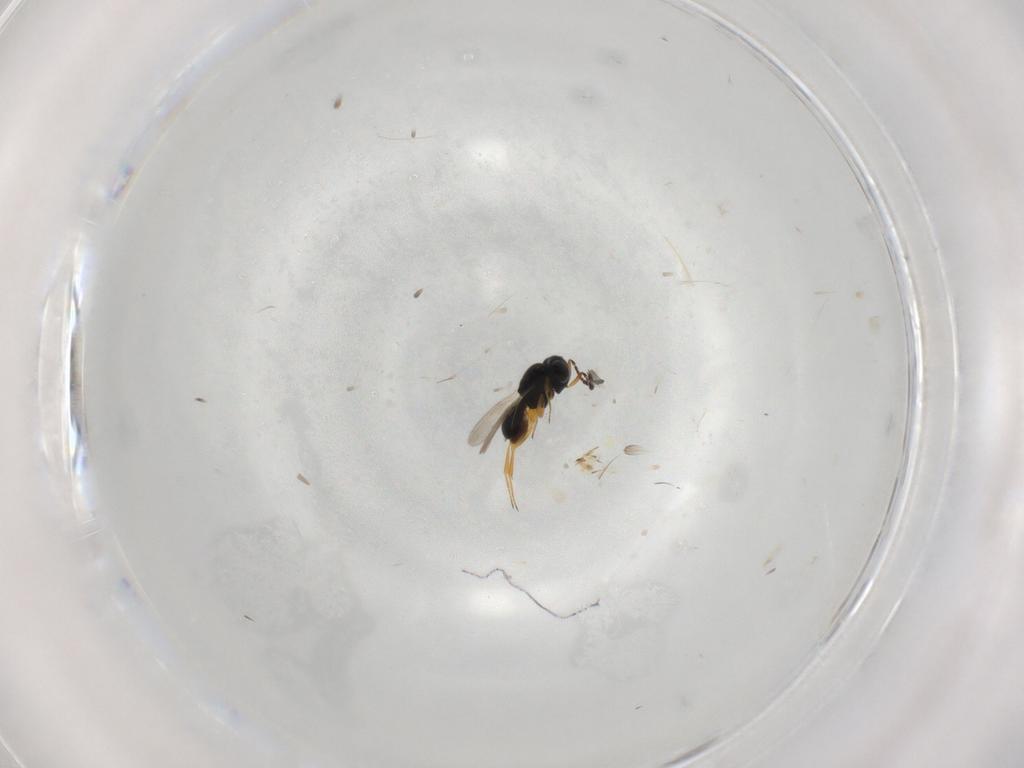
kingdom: Animalia
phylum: Arthropoda
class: Insecta
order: Hymenoptera
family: Scelionidae
